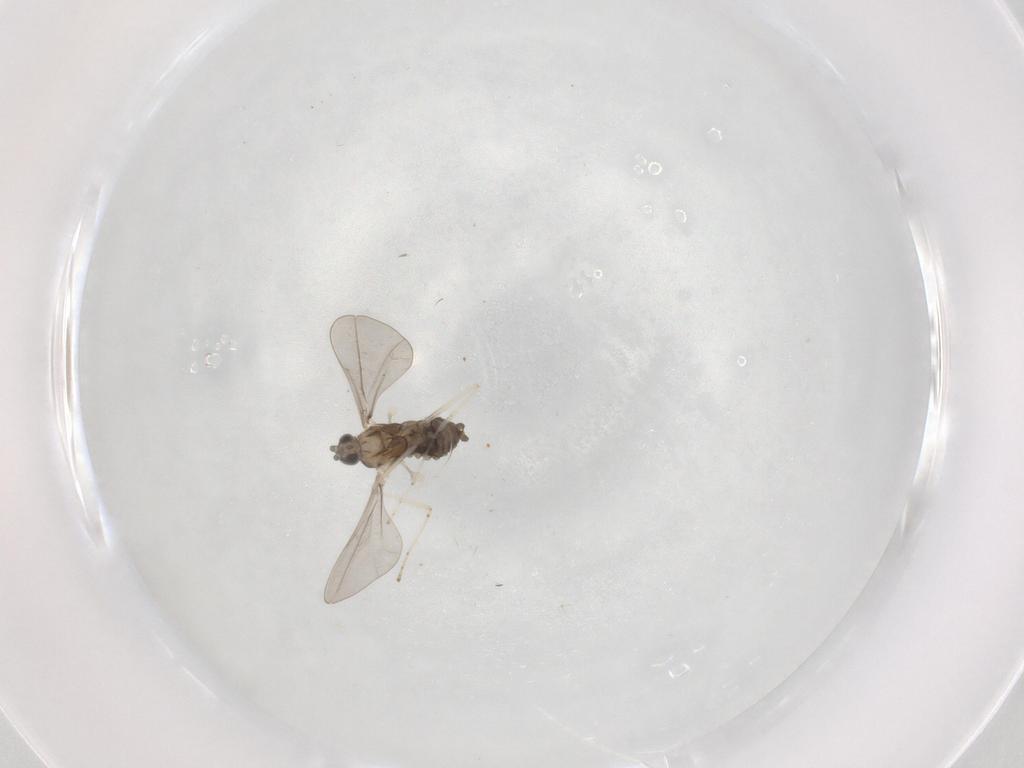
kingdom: Animalia
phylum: Arthropoda
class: Insecta
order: Diptera
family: Cecidomyiidae
